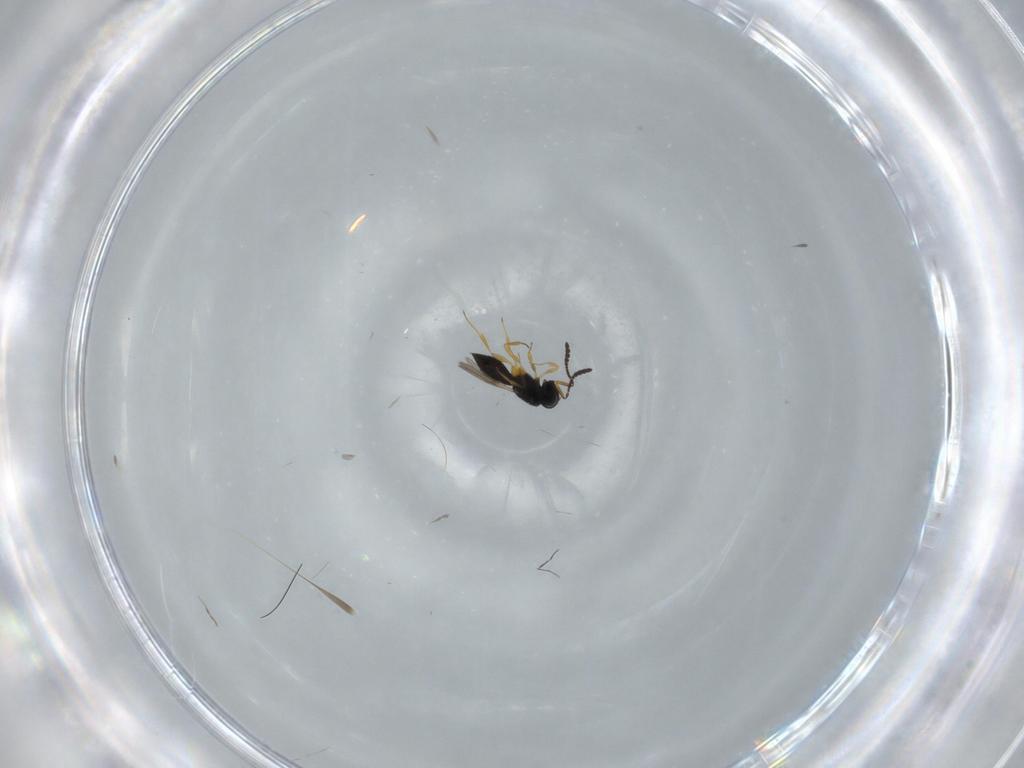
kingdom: Animalia
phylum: Arthropoda
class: Insecta
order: Hymenoptera
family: Scelionidae
